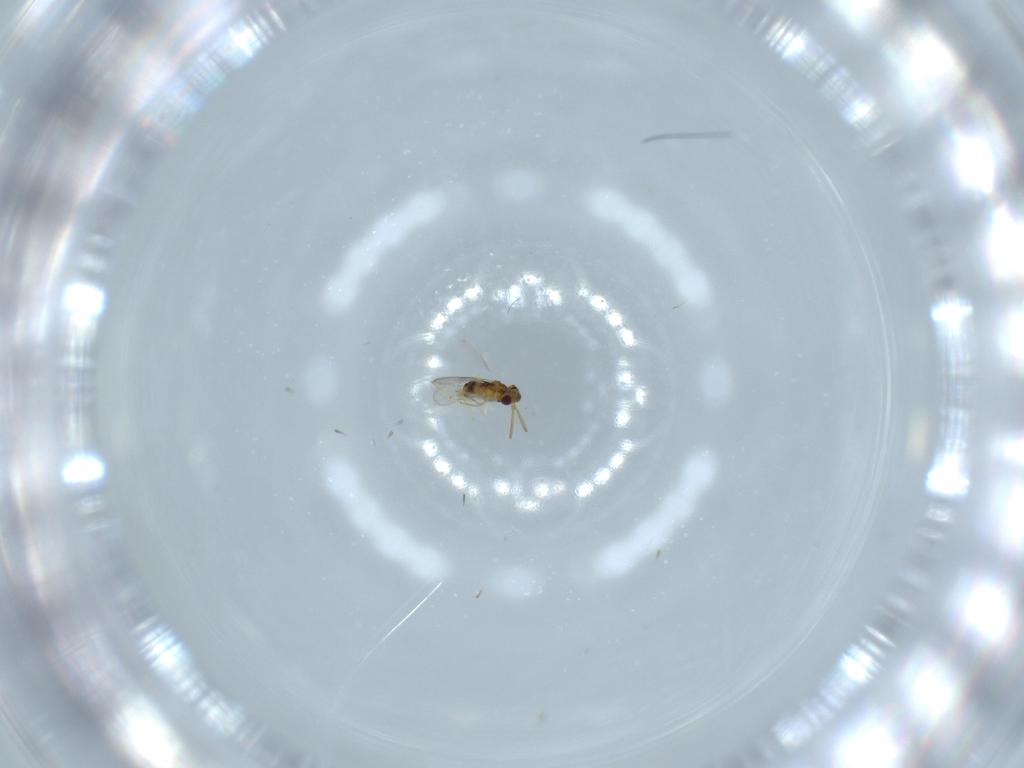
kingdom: Animalia
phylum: Arthropoda
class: Insecta
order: Hymenoptera
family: Aphelinidae
